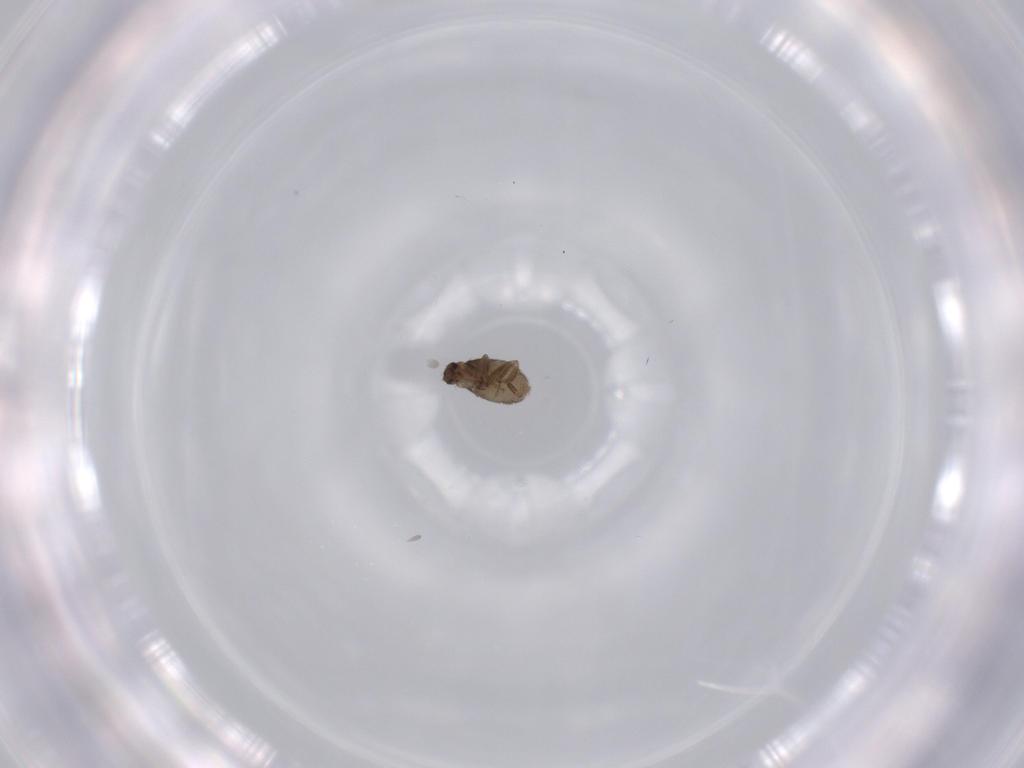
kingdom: Animalia
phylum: Arthropoda
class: Insecta
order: Diptera
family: Phoridae
